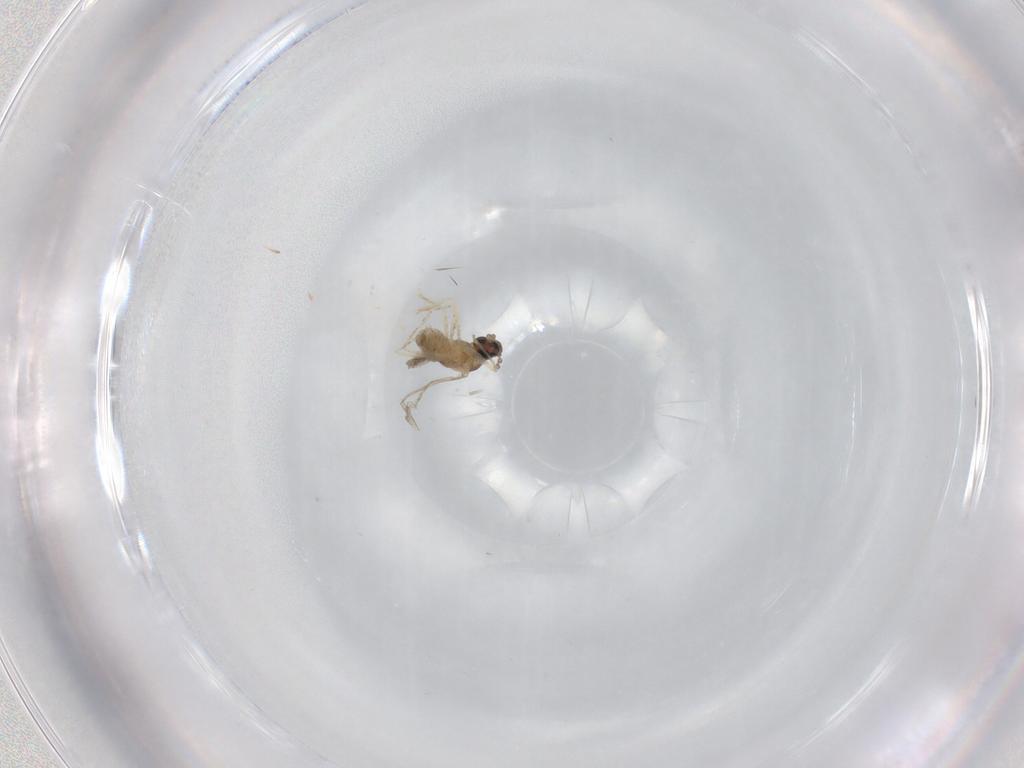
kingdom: Animalia
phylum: Arthropoda
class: Insecta
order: Diptera
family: Cecidomyiidae
